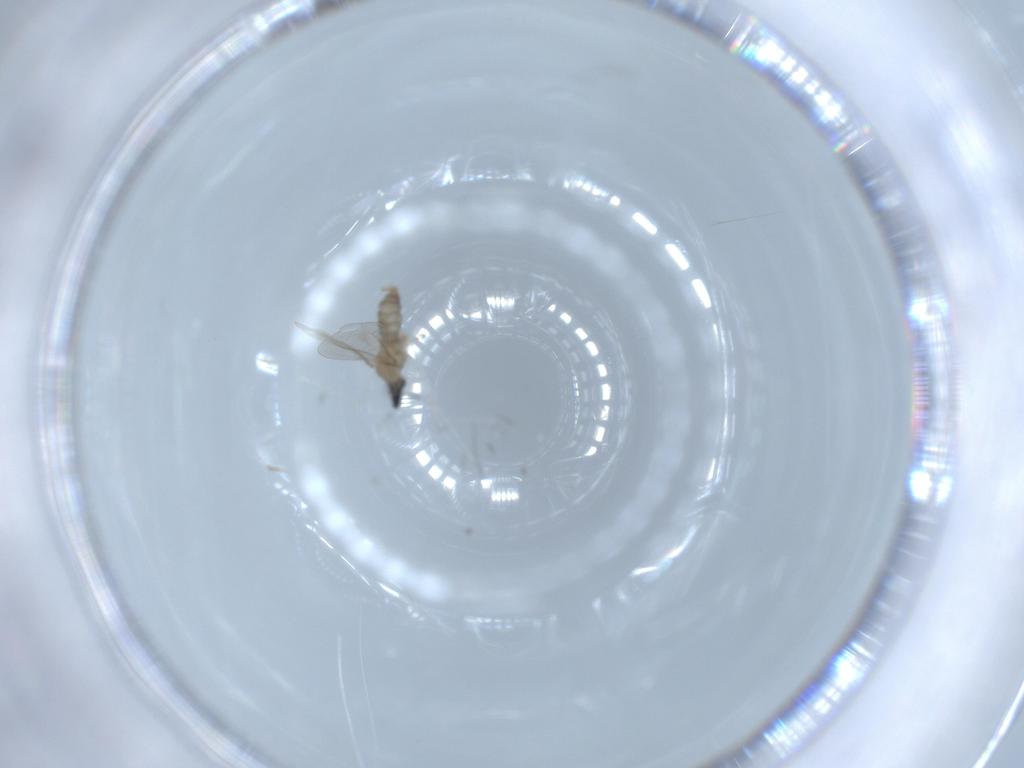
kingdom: Animalia
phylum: Arthropoda
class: Insecta
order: Diptera
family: Cecidomyiidae
